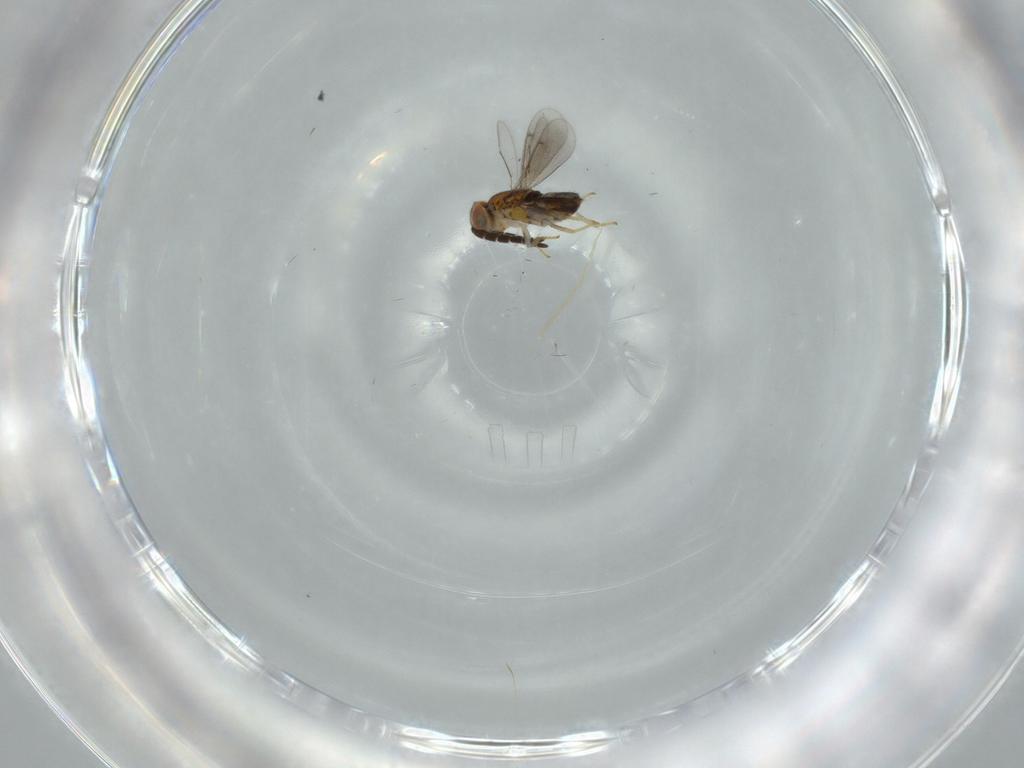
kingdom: Animalia
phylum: Arthropoda
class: Insecta
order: Hymenoptera
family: Aphelinidae
